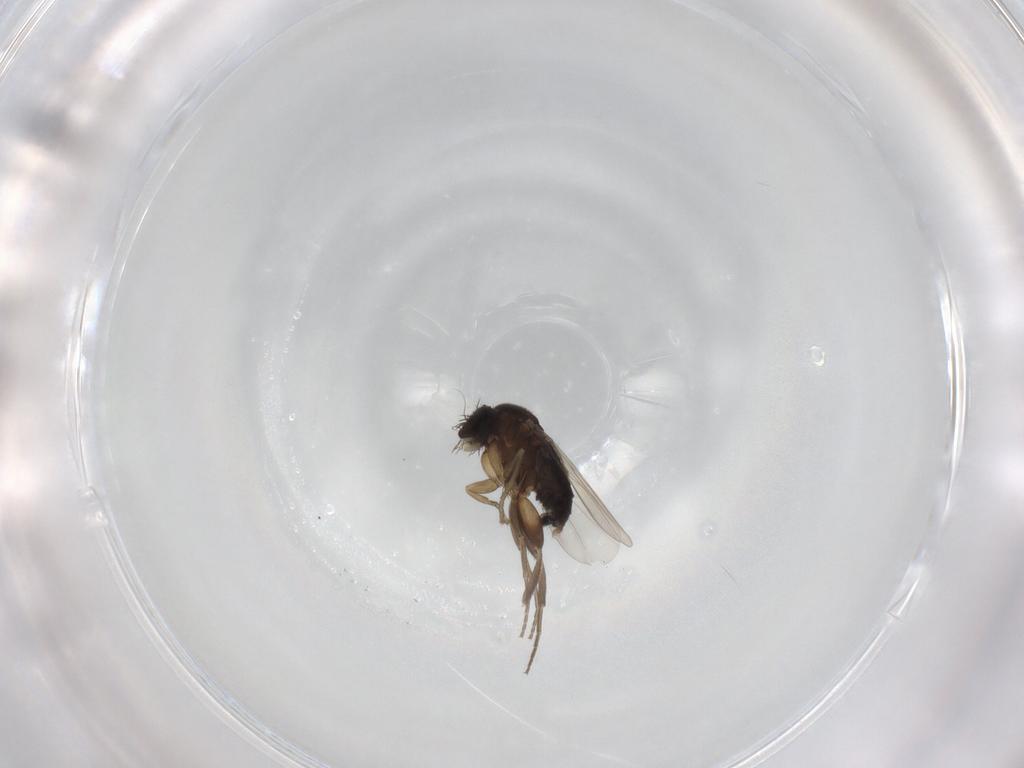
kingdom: Animalia
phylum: Arthropoda
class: Insecta
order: Diptera
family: Phoridae
